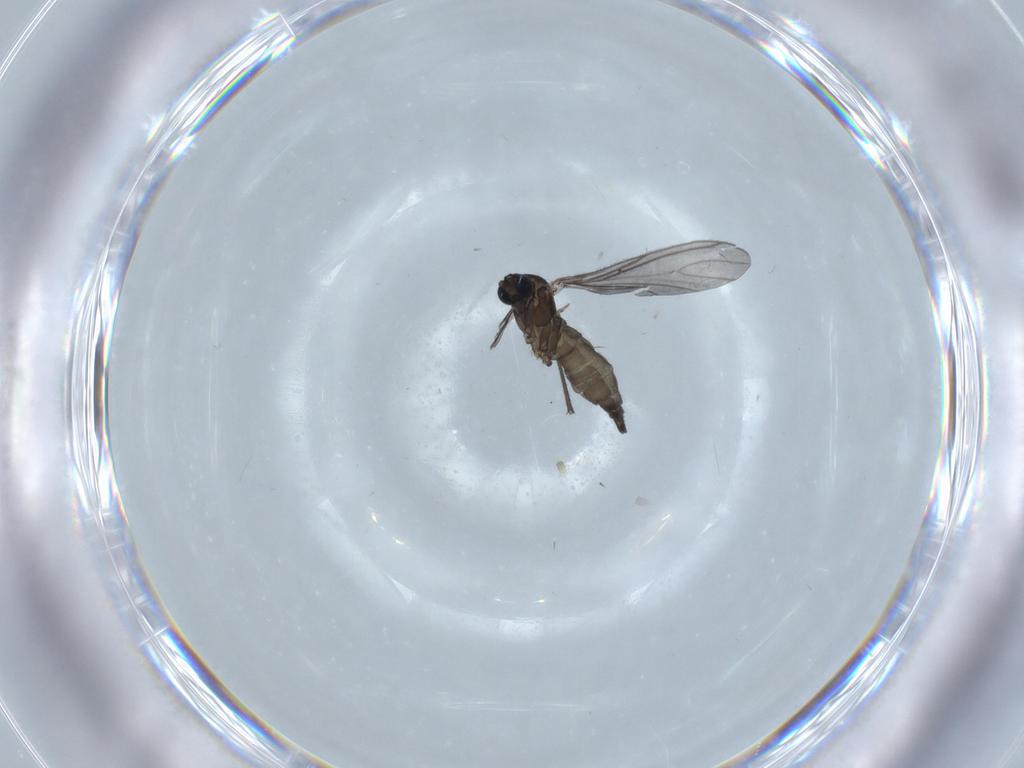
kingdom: Animalia
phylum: Arthropoda
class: Insecta
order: Diptera
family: Sciaridae
